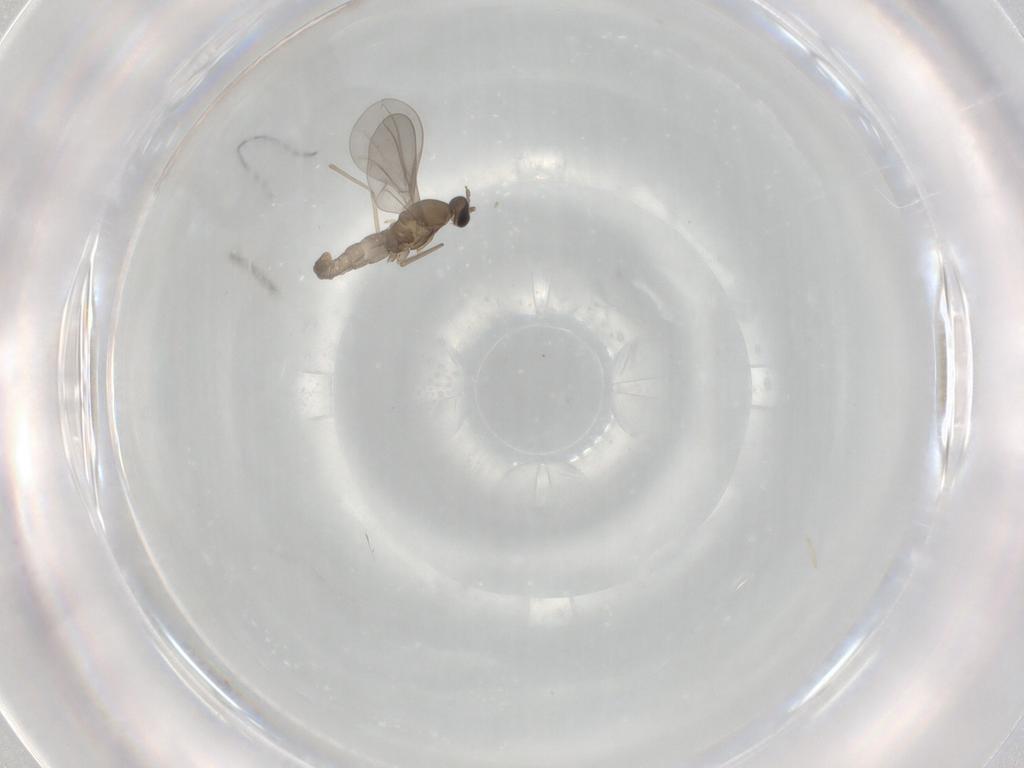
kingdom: Animalia
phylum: Arthropoda
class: Insecta
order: Diptera
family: Cecidomyiidae
